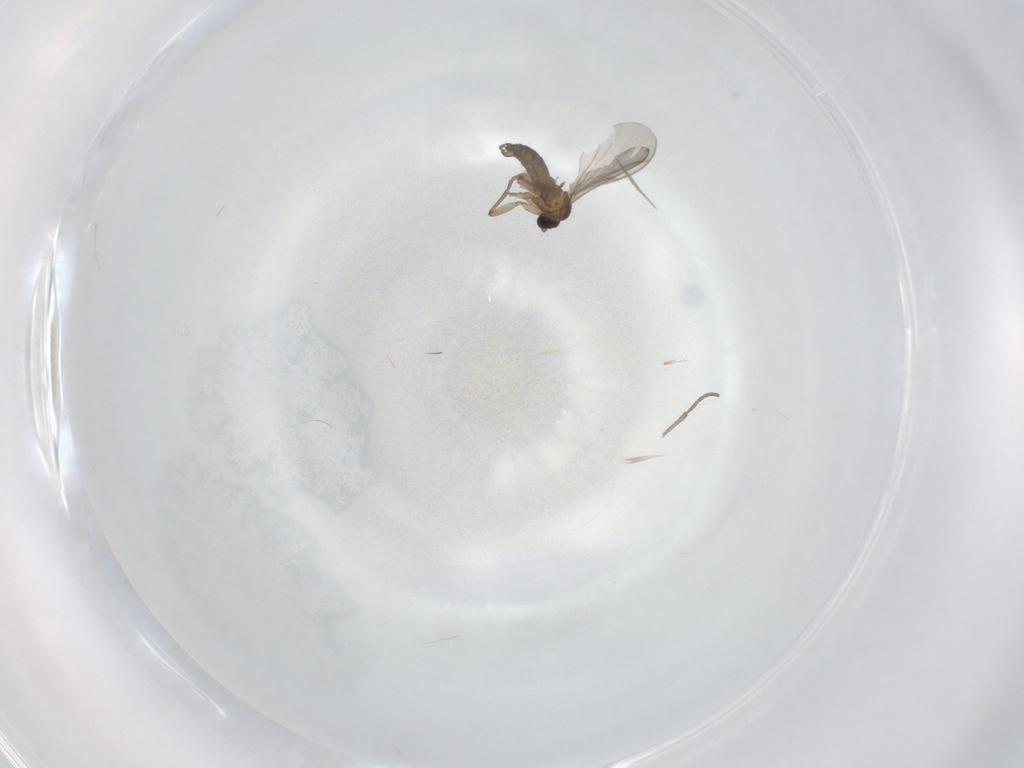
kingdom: Animalia
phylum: Arthropoda
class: Insecta
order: Diptera
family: Sciaridae
